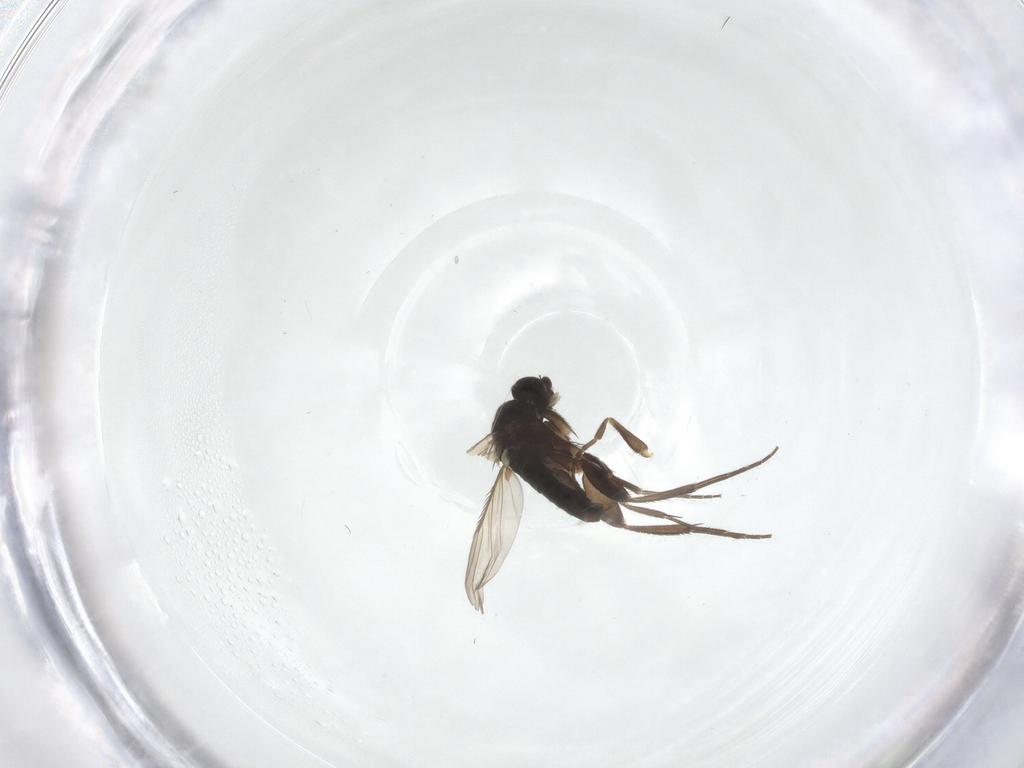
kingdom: Animalia
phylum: Arthropoda
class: Insecta
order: Diptera
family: Phoridae
